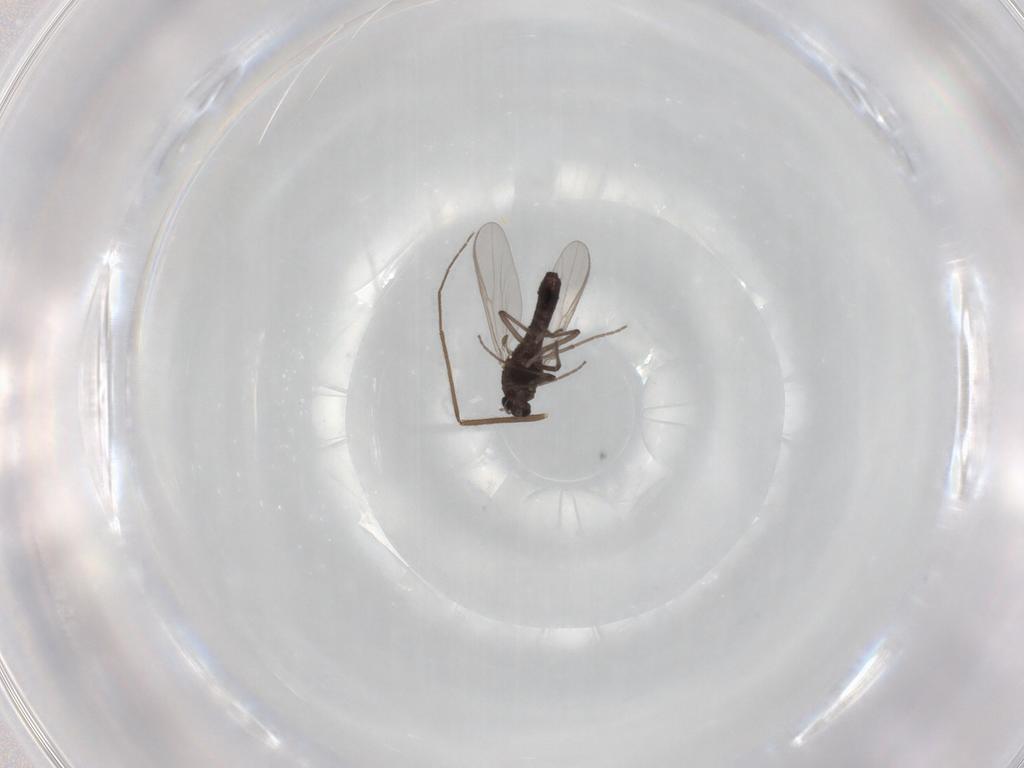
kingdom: Animalia
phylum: Arthropoda
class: Insecta
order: Diptera
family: Chironomidae
